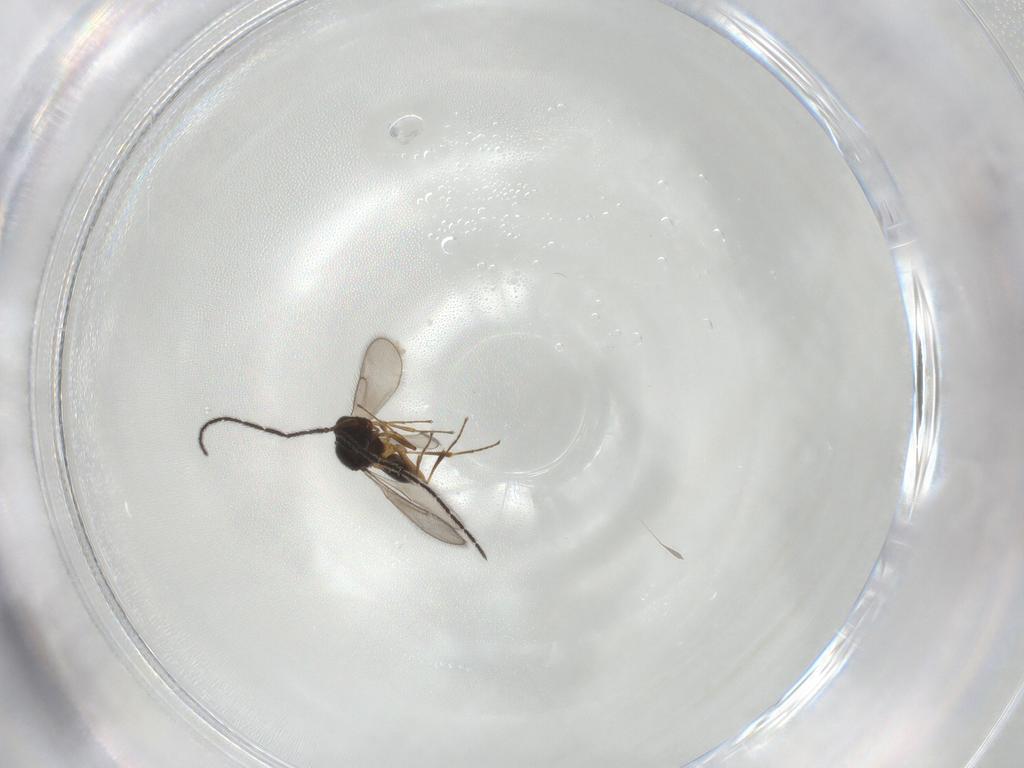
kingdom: Animalia
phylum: Arthropoda
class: Insecta
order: Hymenoptera
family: Scelionidae
